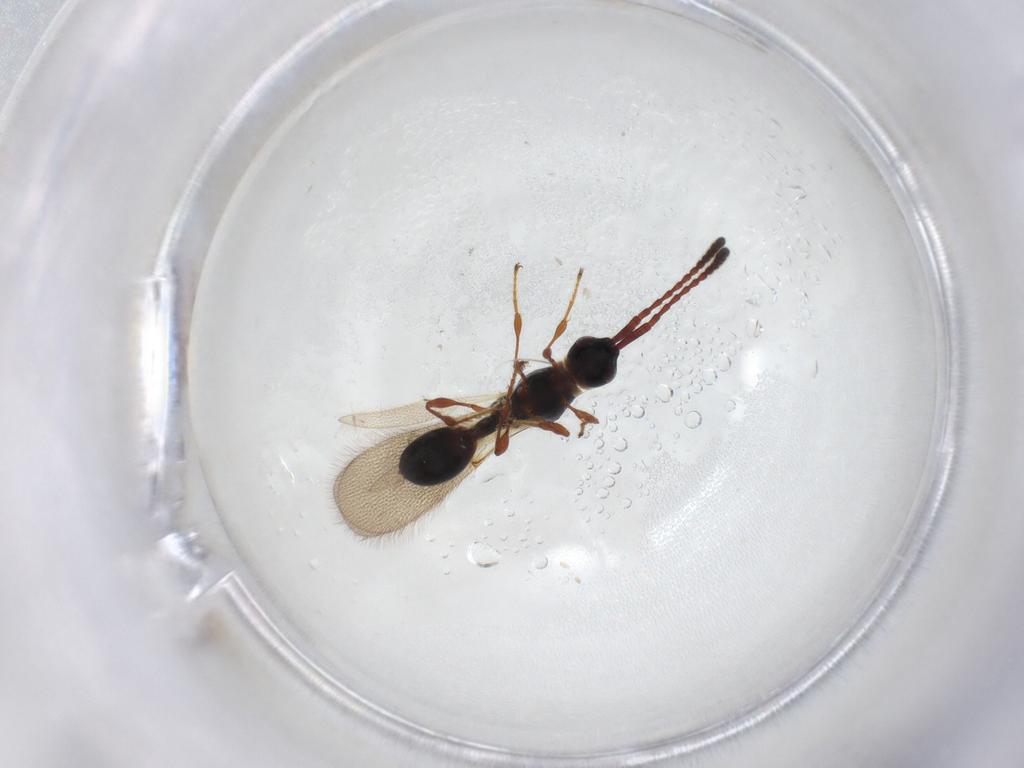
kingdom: Animalia
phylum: Arthropoda
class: Insecta
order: Hymenoptera
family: Diapriidae
